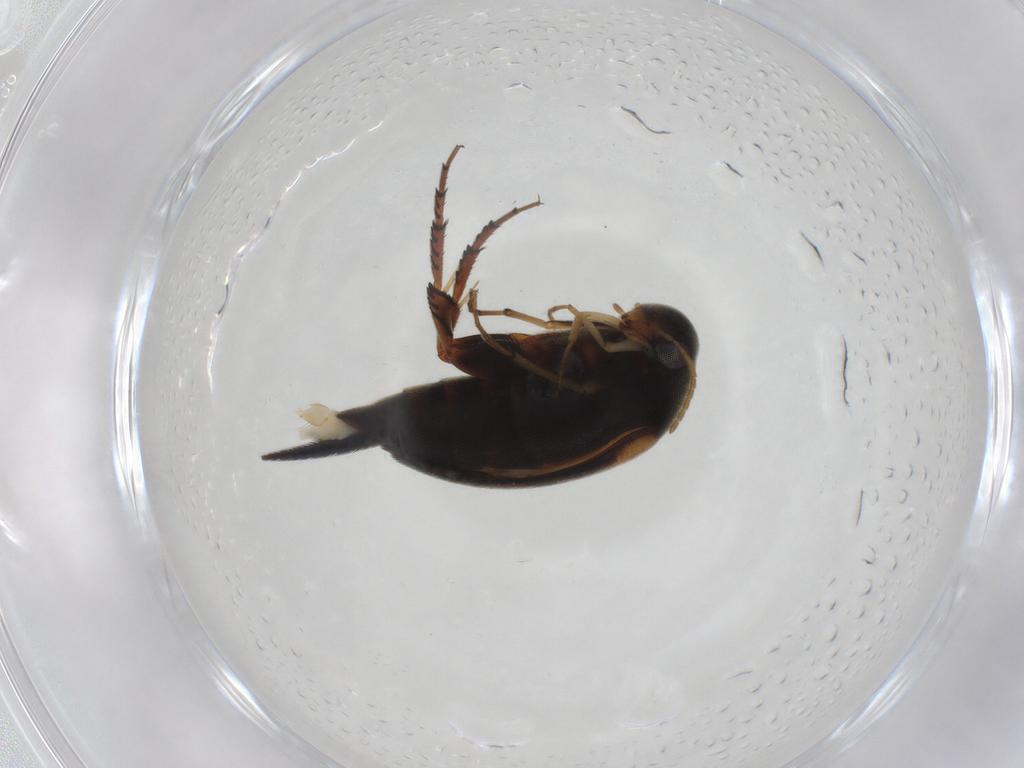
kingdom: Animalia
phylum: Arthropoda
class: Insecta
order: Coleoptera
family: Mordellidae
